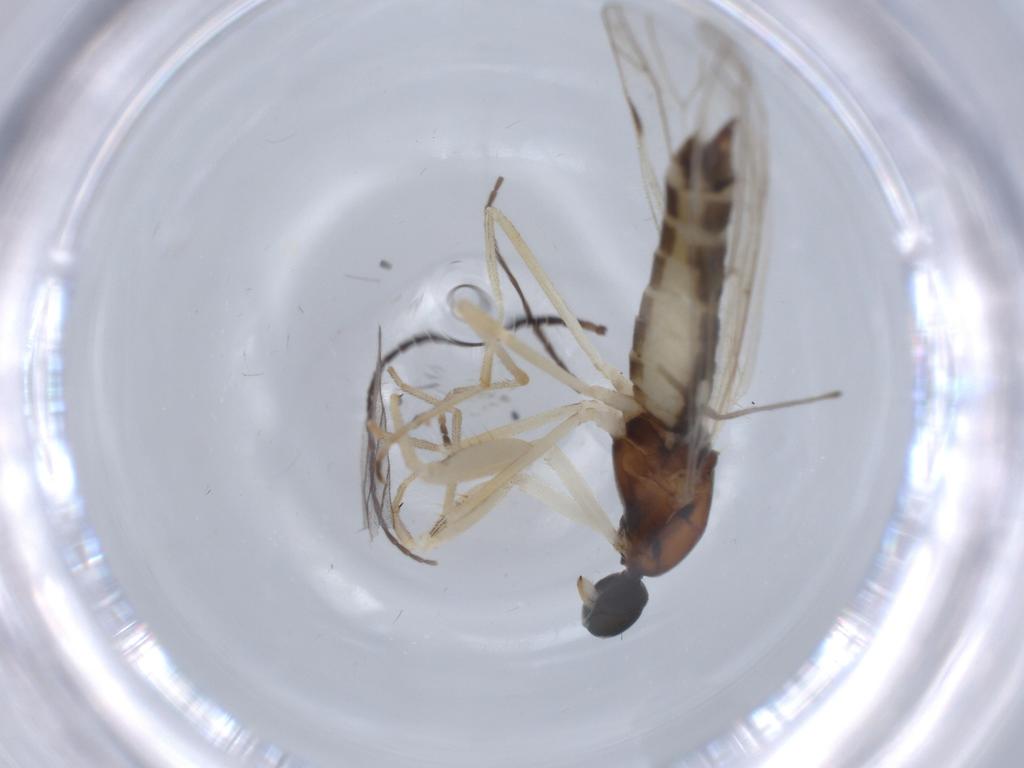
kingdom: Animalia
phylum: Arthropoda
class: Insecta
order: Diptera
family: Empididae
